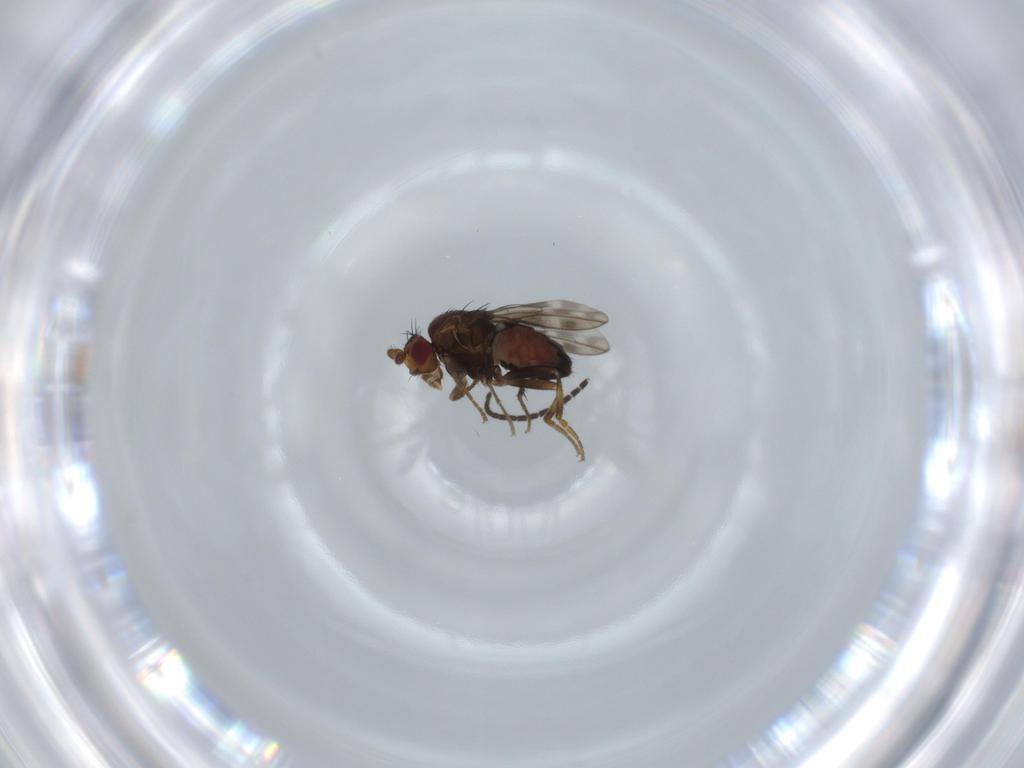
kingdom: Animalia
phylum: Arthropoda
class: Insecta
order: Diptera
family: Sphaeroceridae
